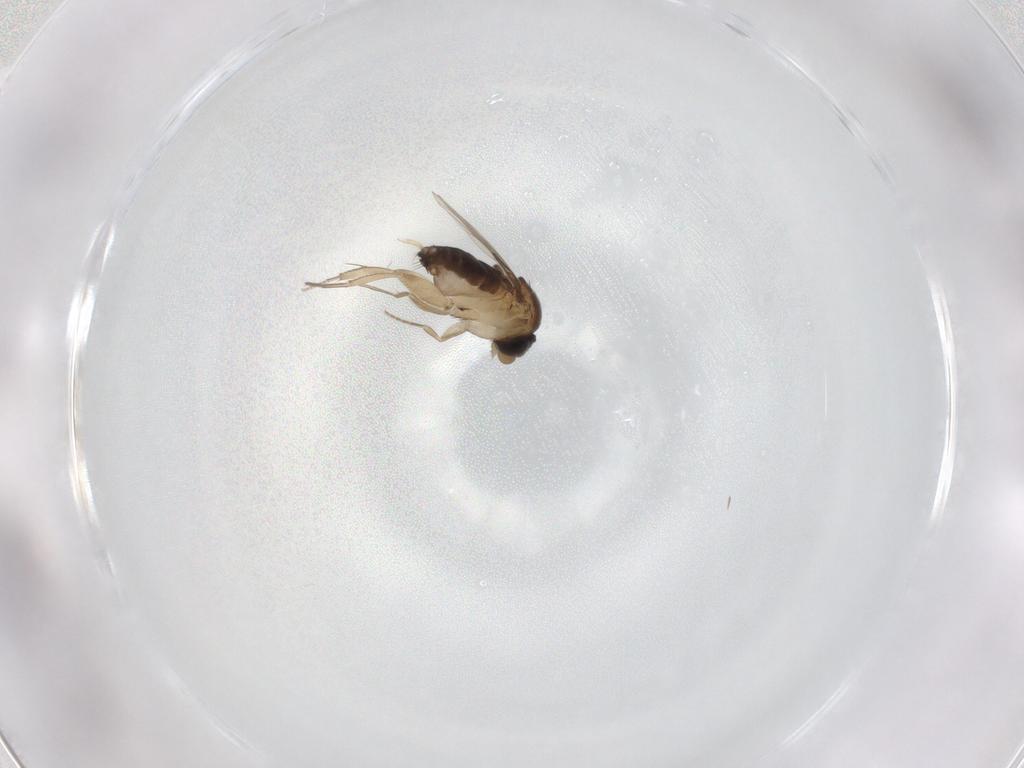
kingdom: Animalia
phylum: Arthropoda
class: Insecta
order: Diptera
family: Phoridae
